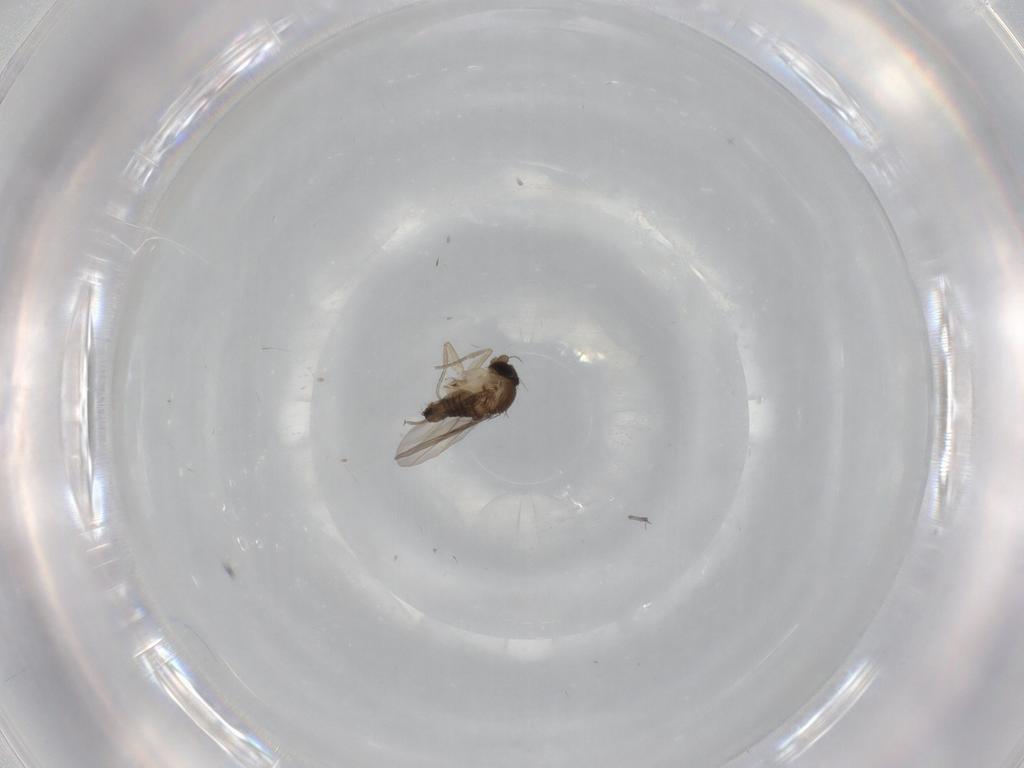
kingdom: Animalia
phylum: Arthropoda
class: Insecta
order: Diptera
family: Phoridae
